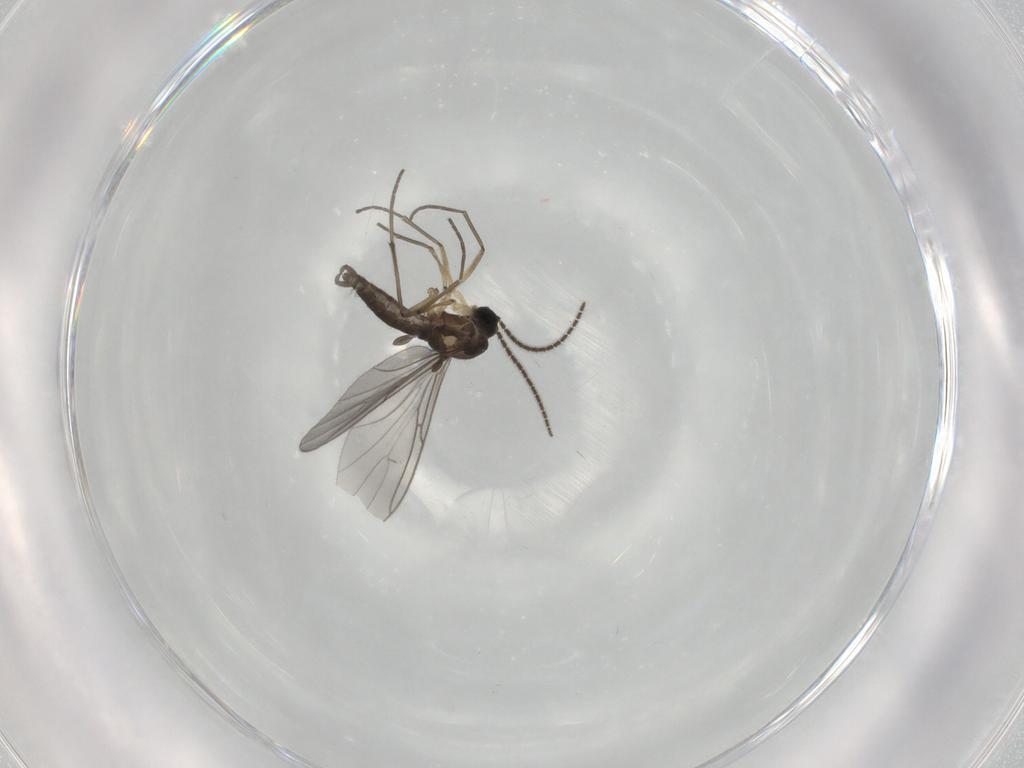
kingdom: Animalia
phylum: Arthropoda
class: Insecta
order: Diptera
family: Sciaridae
